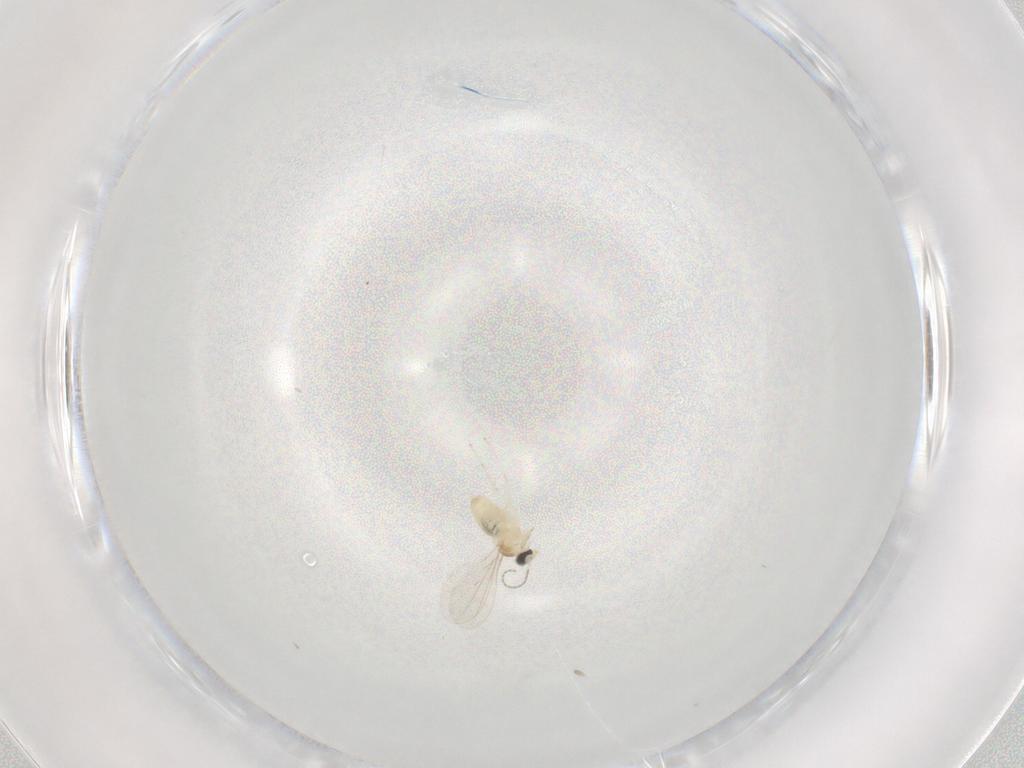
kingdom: Animalia
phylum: Arthropoda
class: Insecta
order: Diptera
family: Cecidomyiidae
